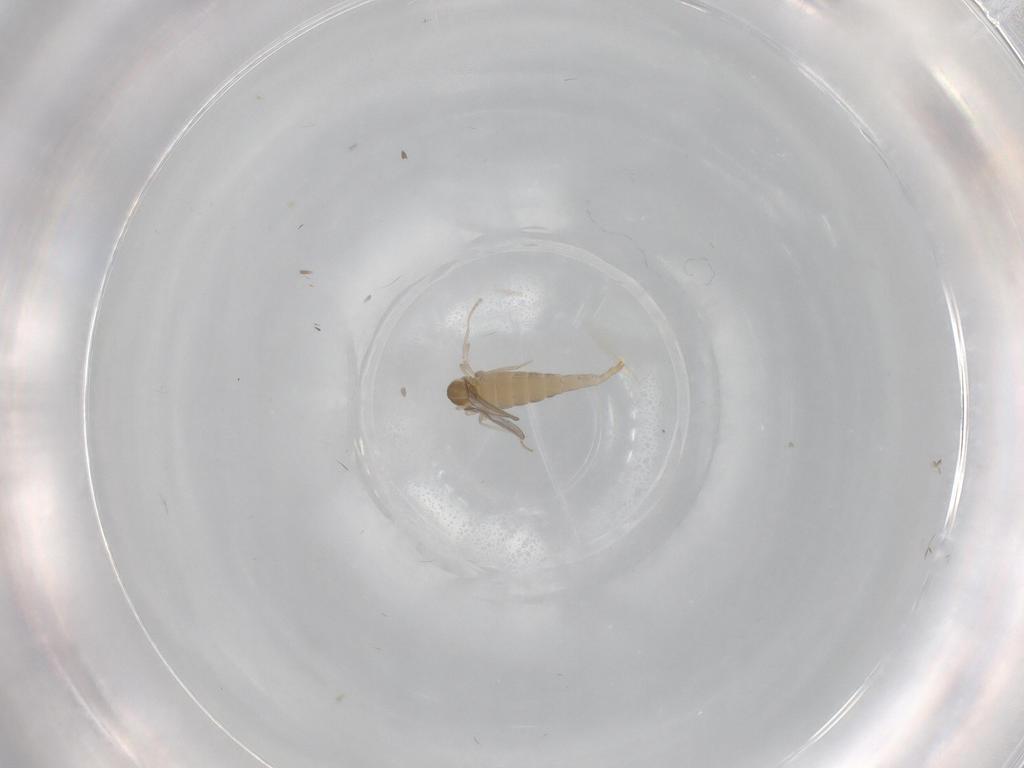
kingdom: Animalia
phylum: Arthropoda
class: Insecta
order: Diptera
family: Cecidomyiidae
